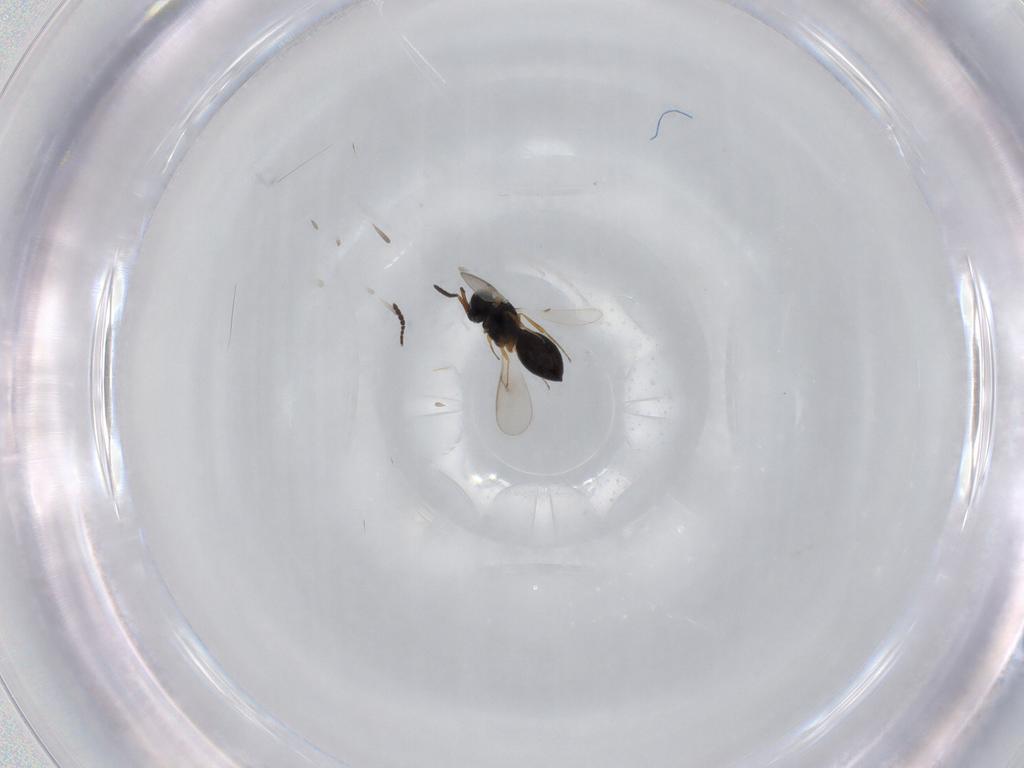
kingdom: Animalia
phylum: Arthropoda
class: Insecta
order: Hymenoptera
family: Scelionidae
